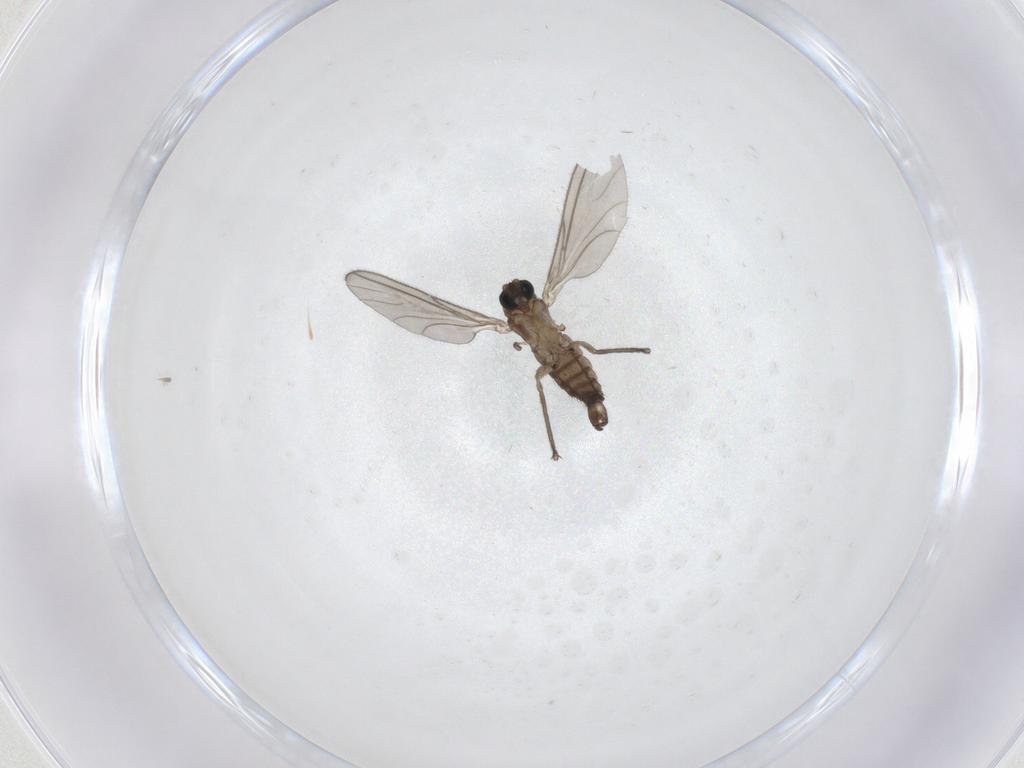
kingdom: Animalia
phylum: Arthropoda
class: Insecta
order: Diptera
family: Sciaridae
